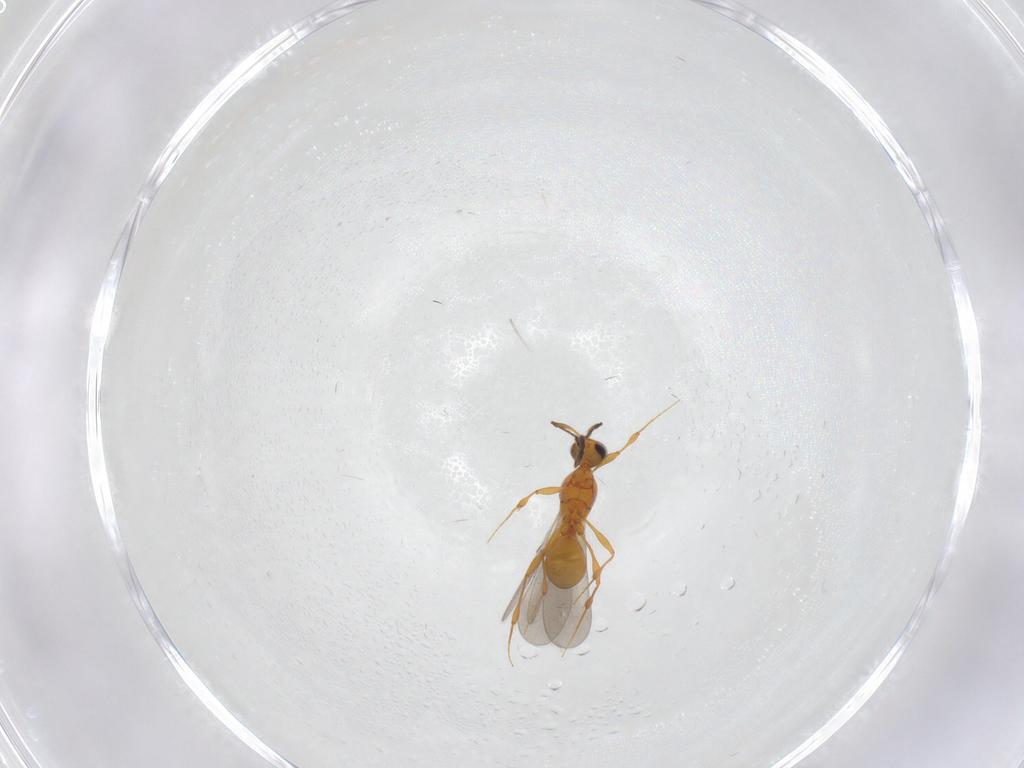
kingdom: Animalia
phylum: Arthropoda
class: Insecta
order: Hymenoptera
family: Platygastridae
